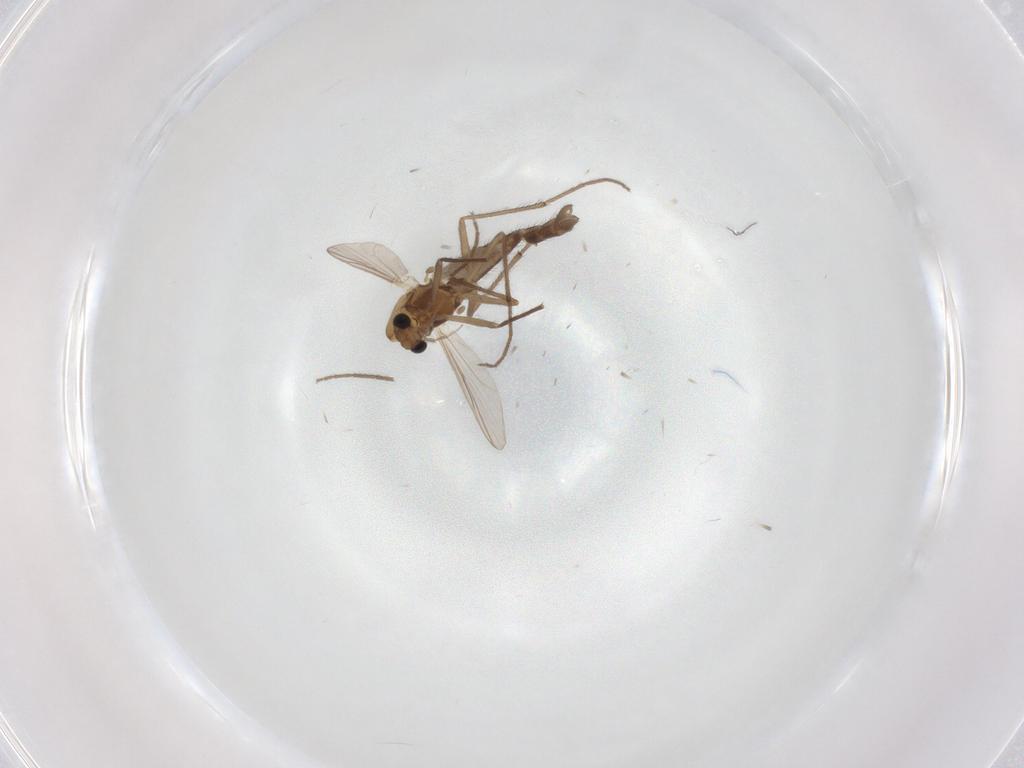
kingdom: Animalia
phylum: Arthropoda
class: Insecta
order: Diptera
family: Chironomidae
